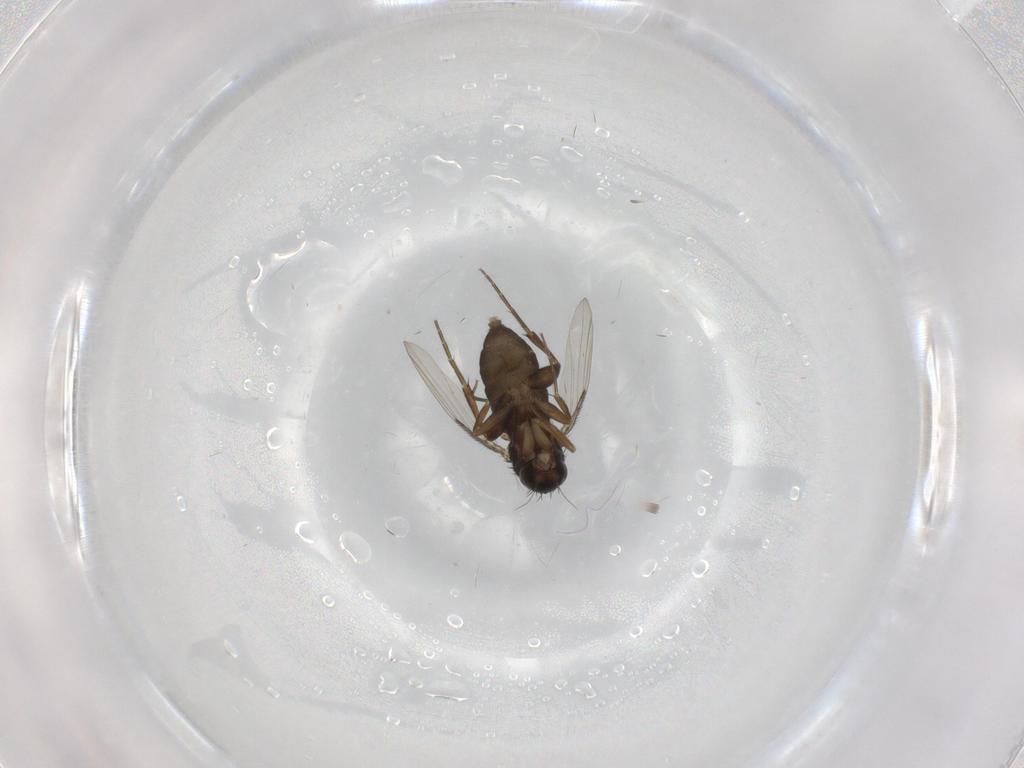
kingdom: Animalia
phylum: Arthropoda
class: Insecta
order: Diptera
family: Phoridae
